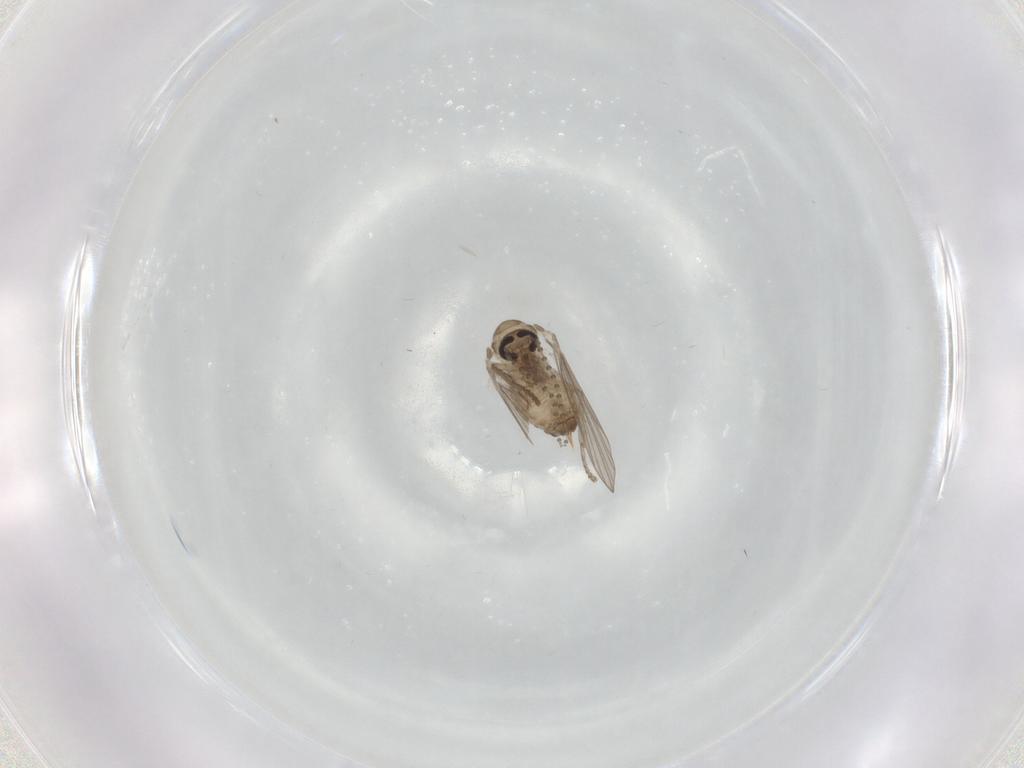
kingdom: Animalia
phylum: Arthropoda
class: Insecta
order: Diptera
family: Psychodidae
